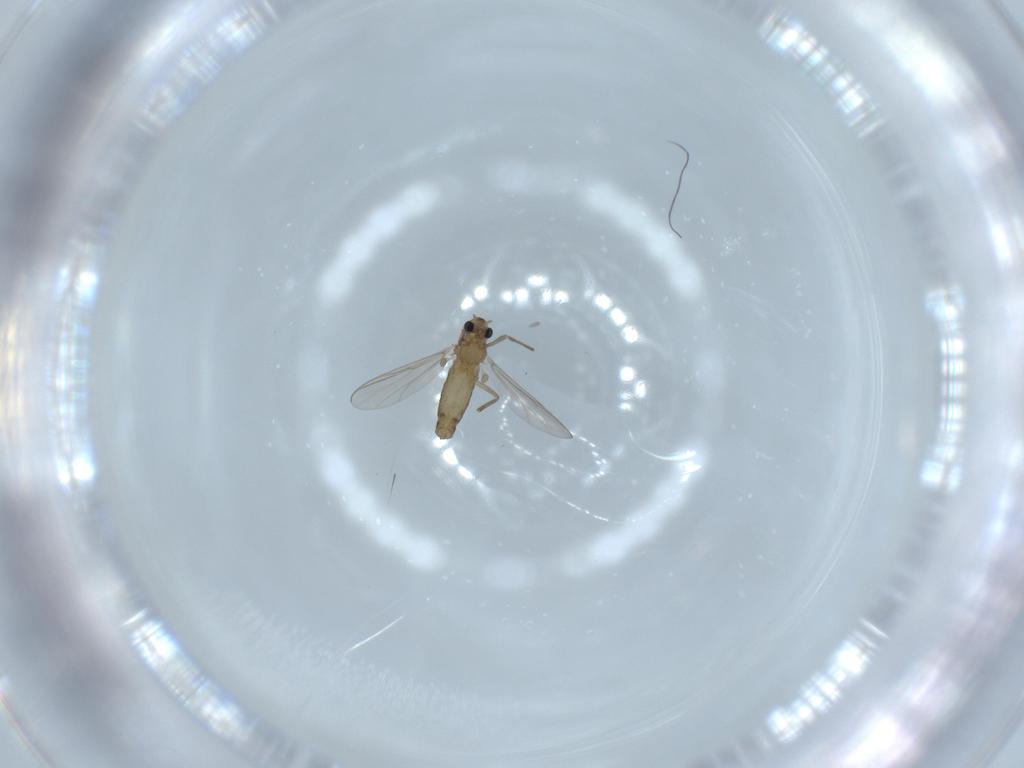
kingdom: Animalia
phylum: Arthropoda
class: Insecta
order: Diptera
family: Chironomidae
